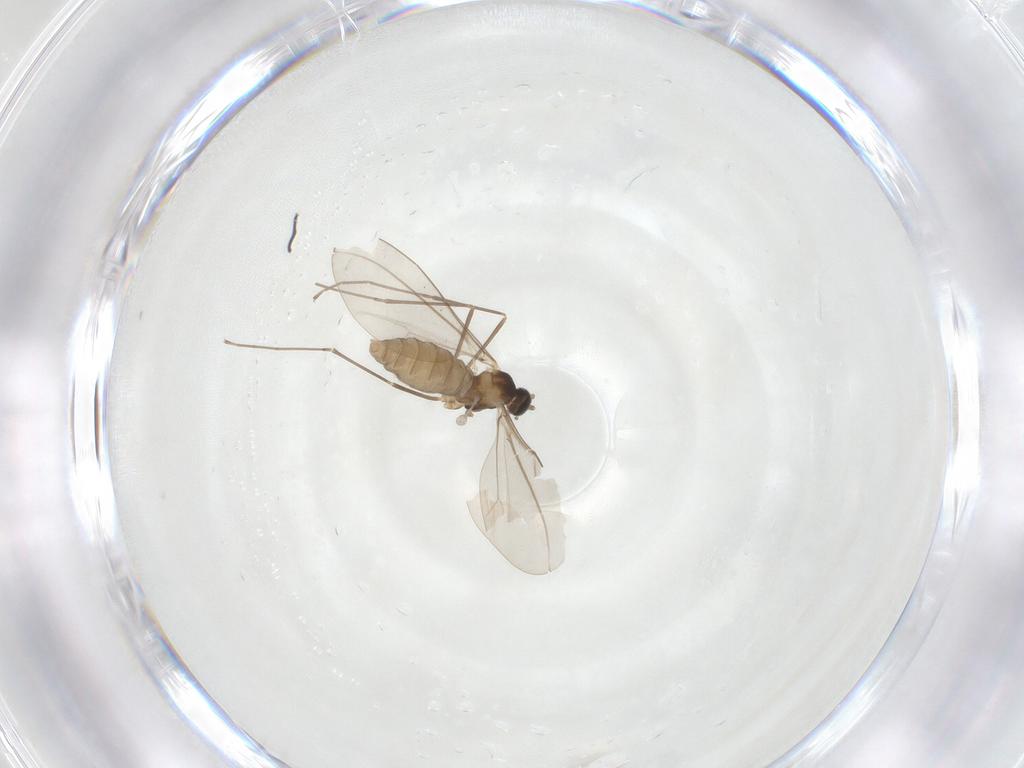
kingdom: Animalia
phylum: Arthropoda
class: Insecta
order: Diptera
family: Cecidomyiidae
